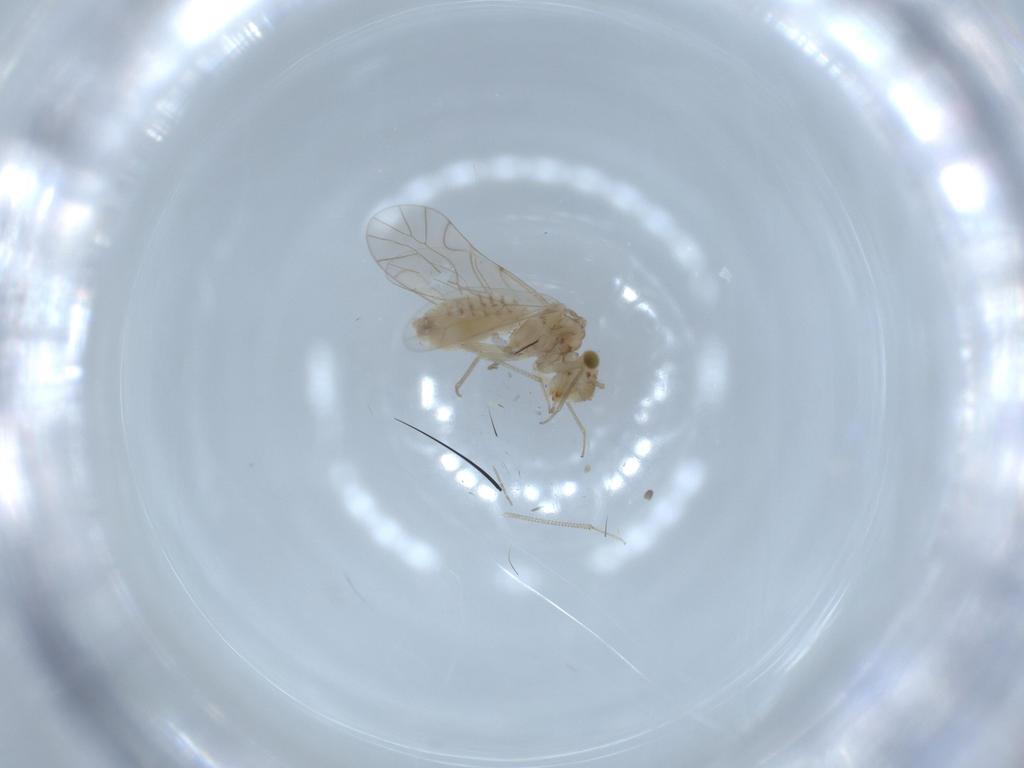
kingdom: Animalia
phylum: Arthropoda
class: Insecta
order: Psocodea
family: Lachesillidae
